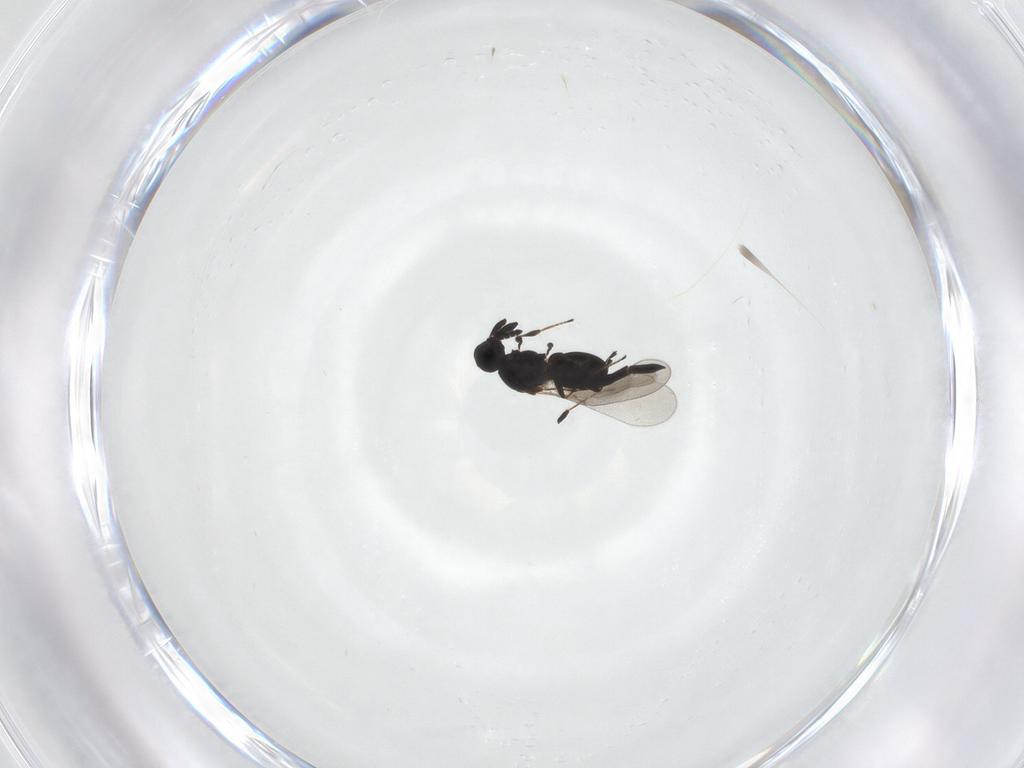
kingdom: Animalia
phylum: Arthropoda
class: Insecta
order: Hymenoptera
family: Platygastridae
